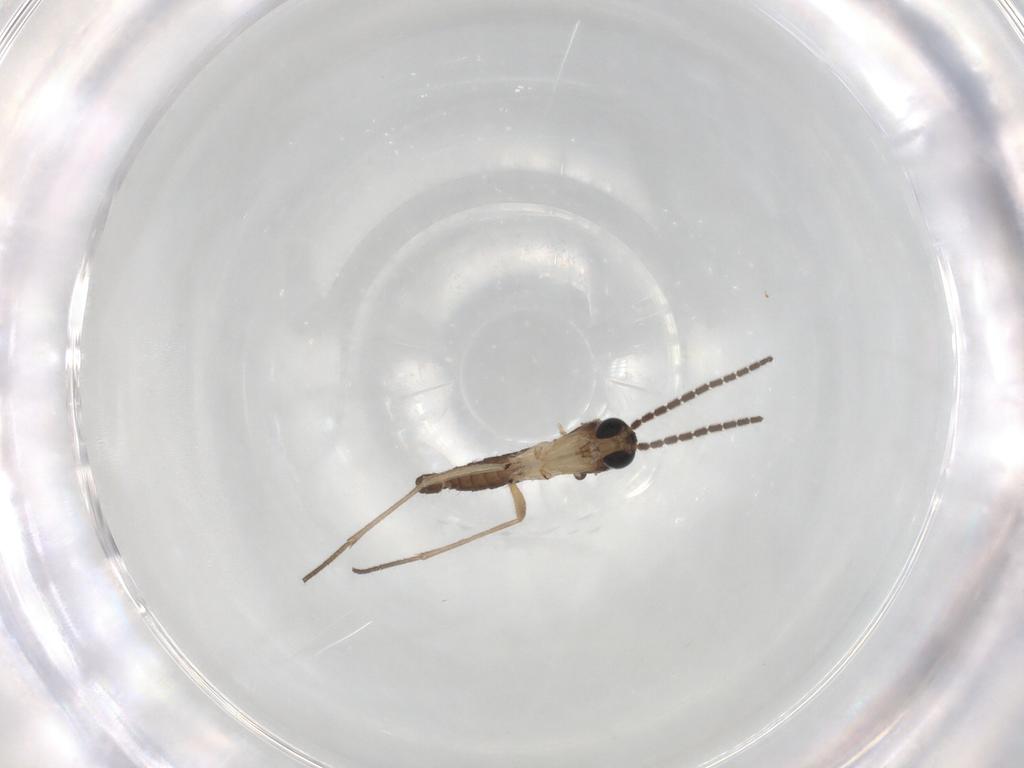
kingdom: Animalia
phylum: Arthropoda
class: Insecta
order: Diptera
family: Sciaridae
